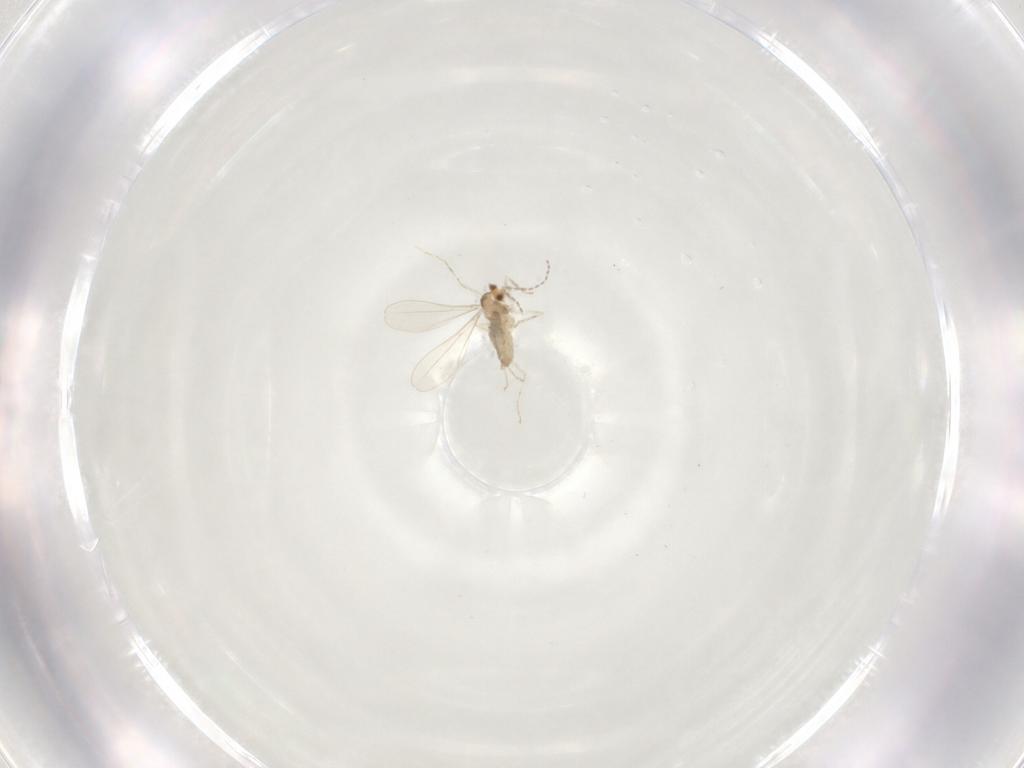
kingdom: Animalia
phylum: Arthropoda
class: Insecta
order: Diptera
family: Cecidomyiidae
